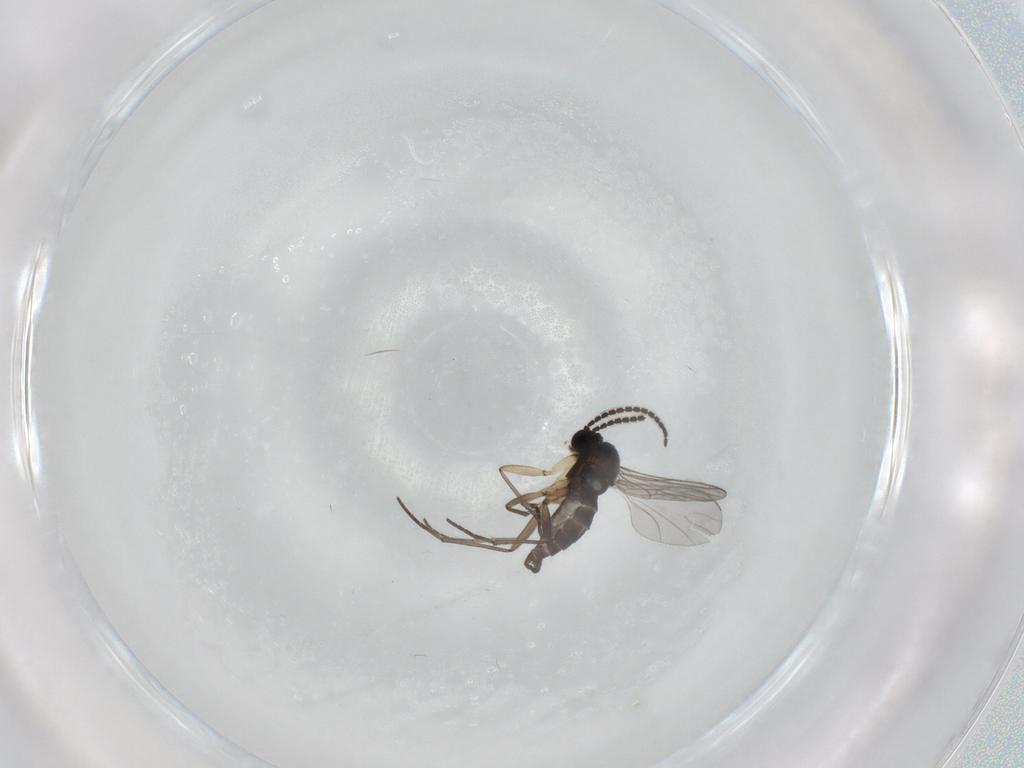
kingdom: Animalia
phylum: Arthropoda
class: Insecta
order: Diptera
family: Sciaridae
